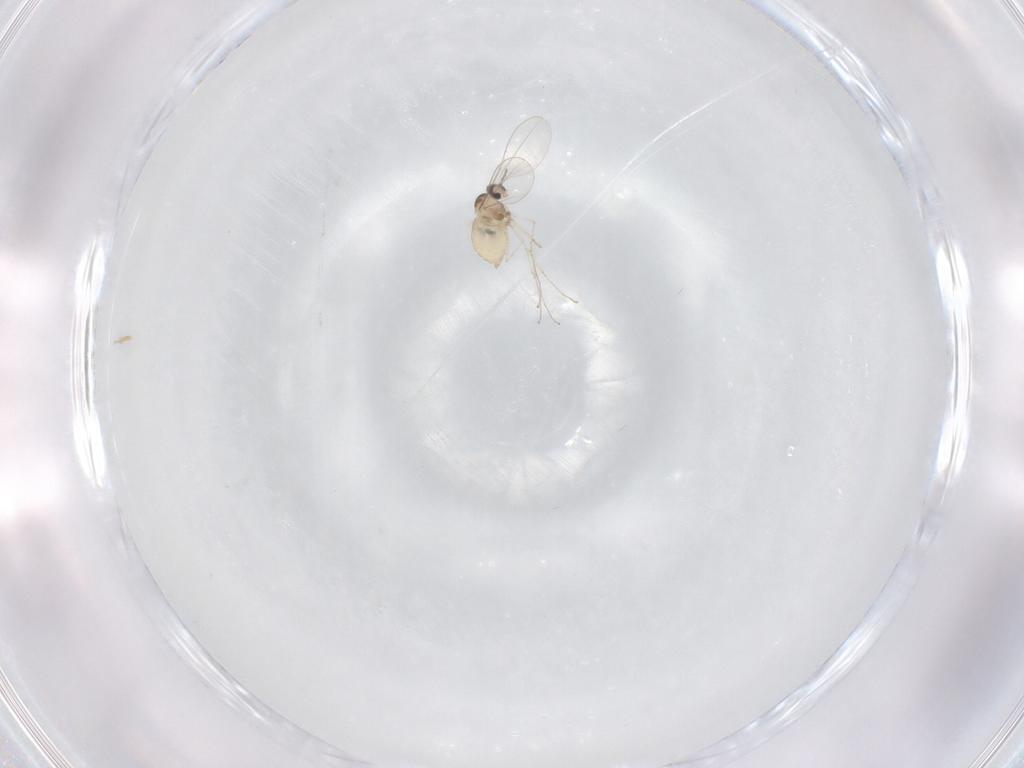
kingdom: Animalia
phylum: Arthropoda
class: Insecta
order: Diptera
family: Cecidomyiidae
